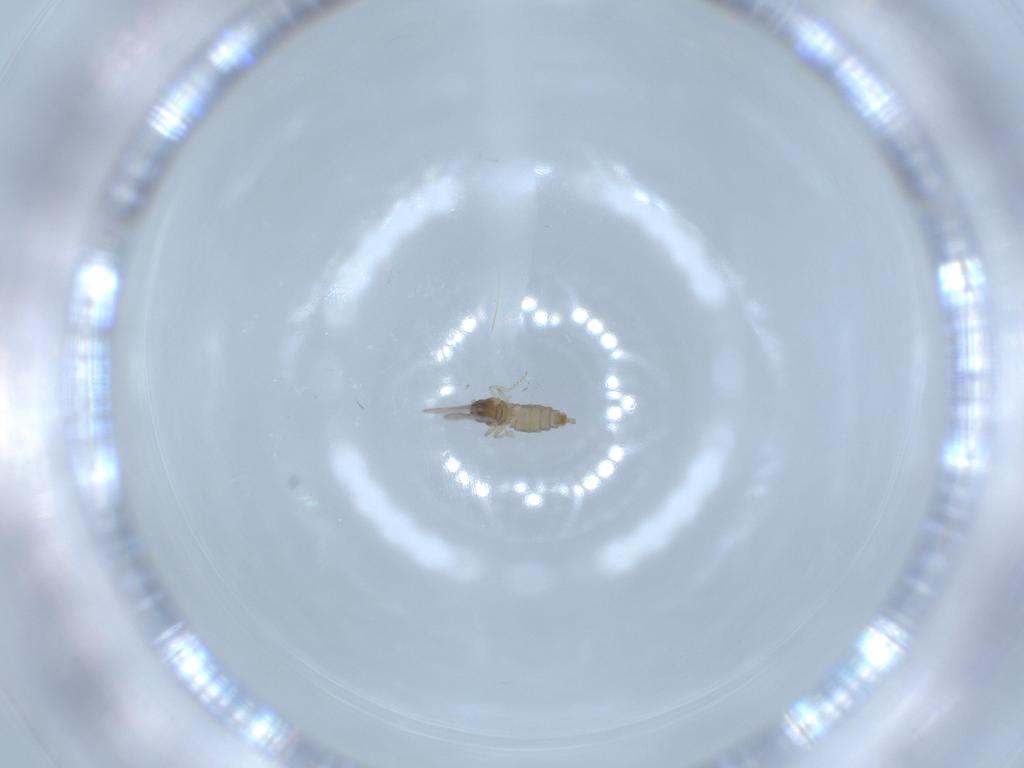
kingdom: Animalia
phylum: Arthropoda
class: Insecta
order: Diptera
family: Cecidomyiidae
